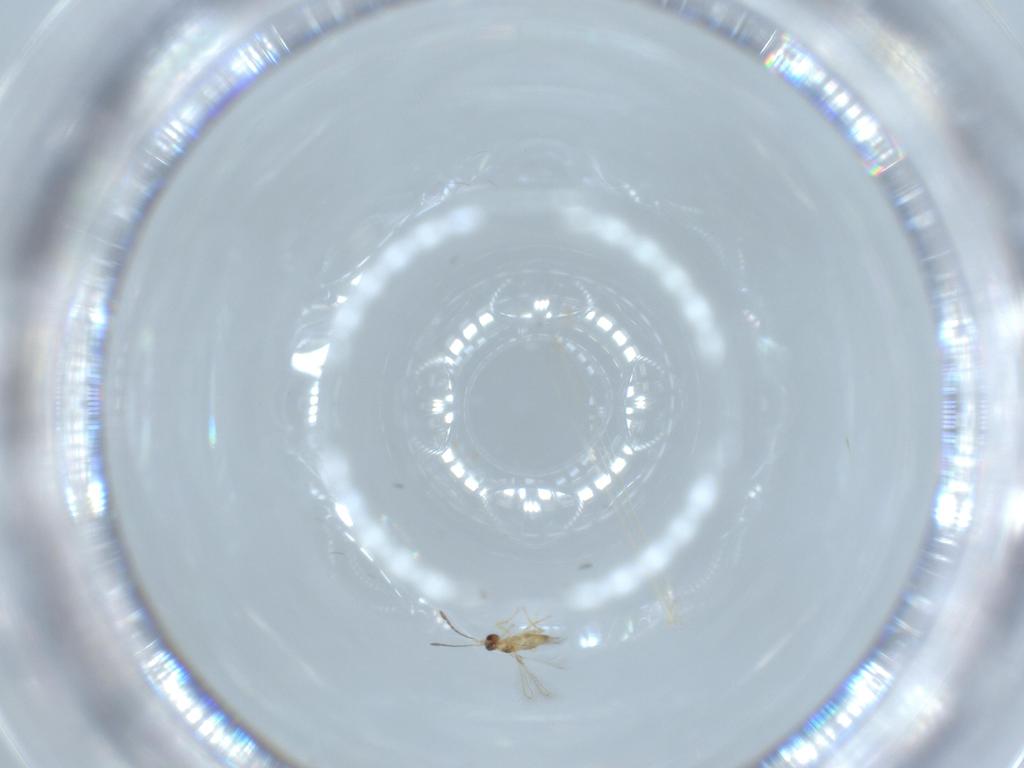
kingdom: Animalia
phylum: Arthropoda
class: Insecta
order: Hymenoptera
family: Mymaridae
